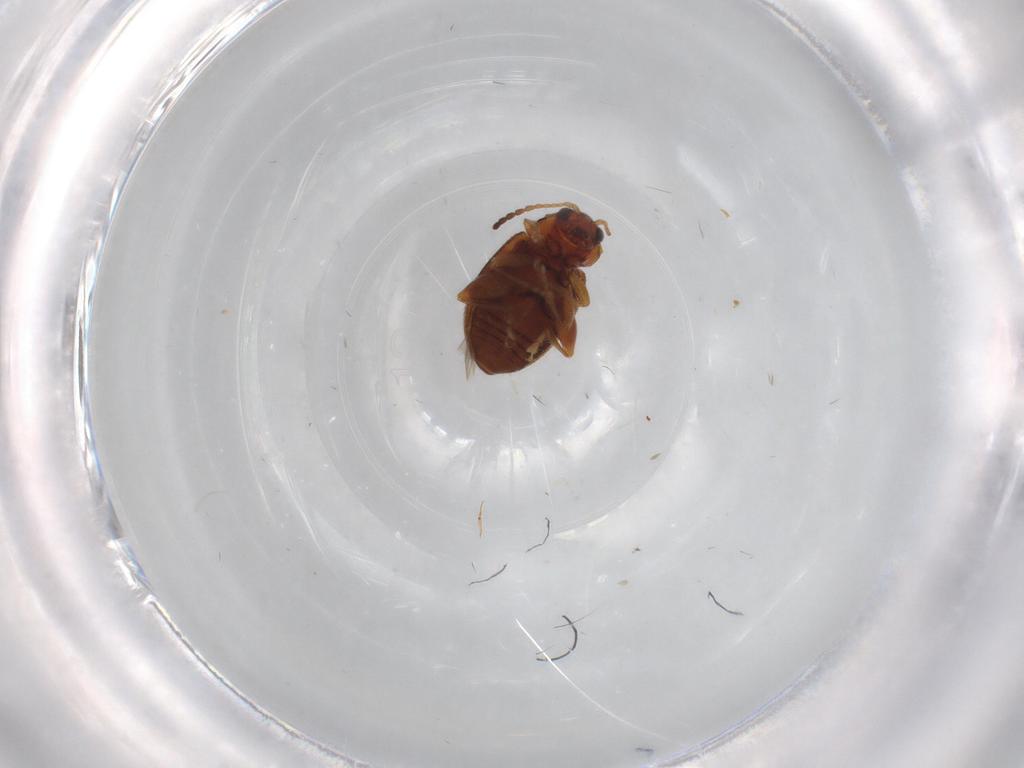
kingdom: Animalia
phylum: Arthropoda
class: Insecta
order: Coleoptera
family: Chrysomelidae
